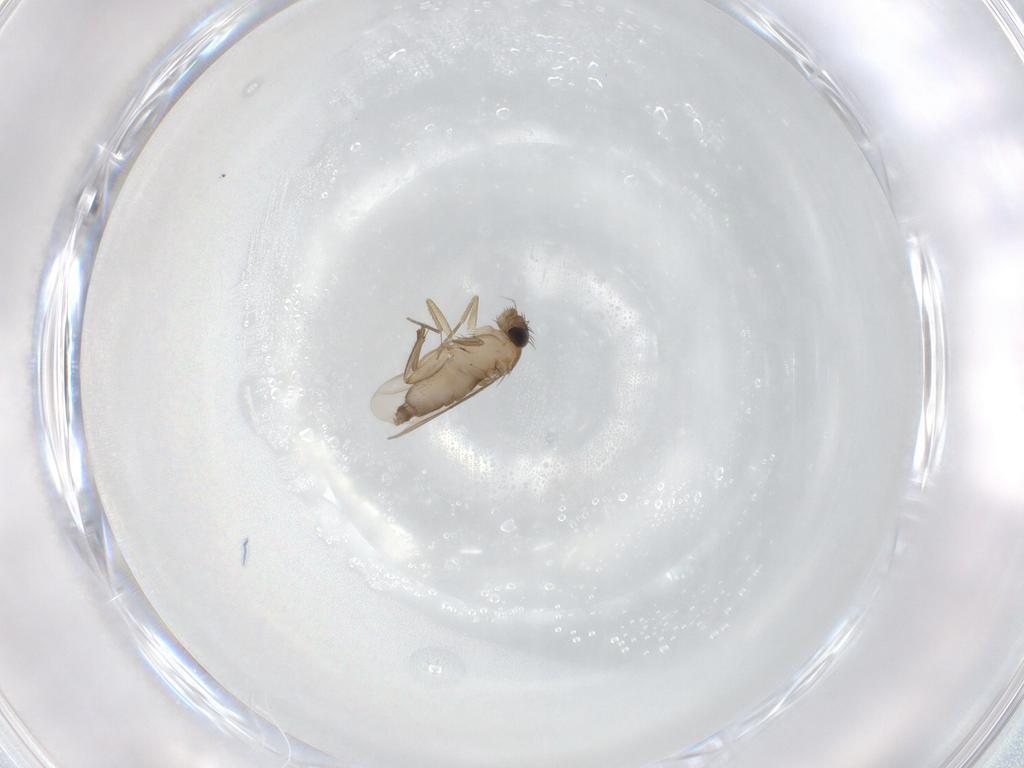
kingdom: Animalia
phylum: Arthropoda
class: Insecta
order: Diptera
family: Phoridae
